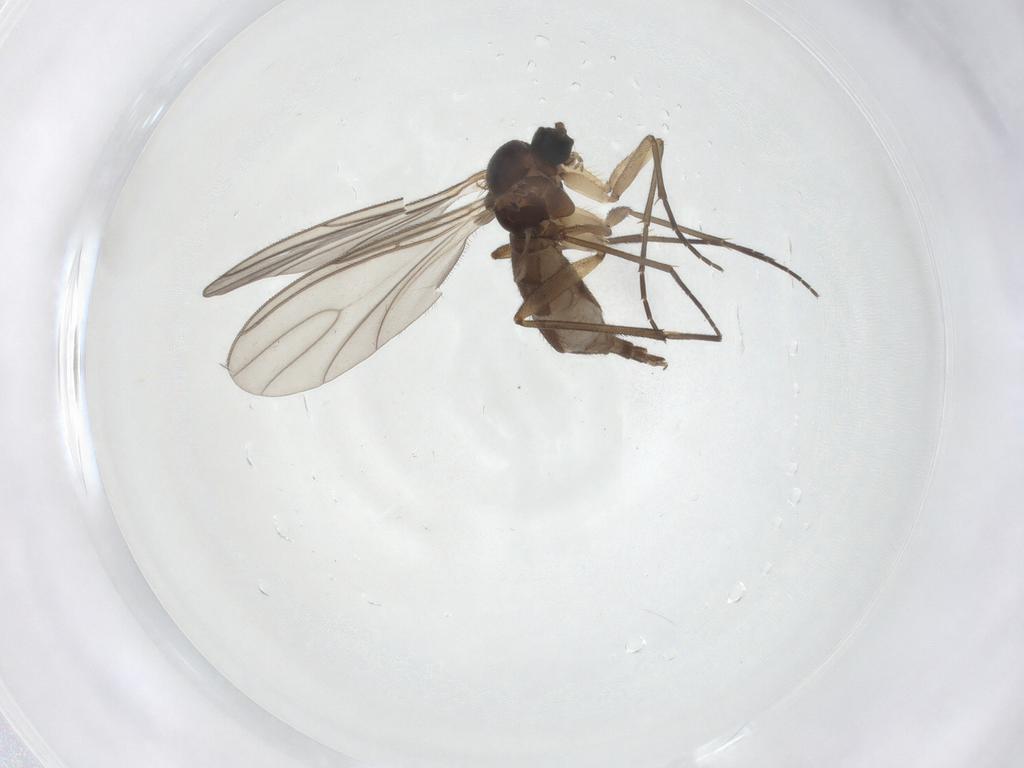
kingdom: Animalia
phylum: Arthropoda
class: Insecta
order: Diptera
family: Sciaridae
